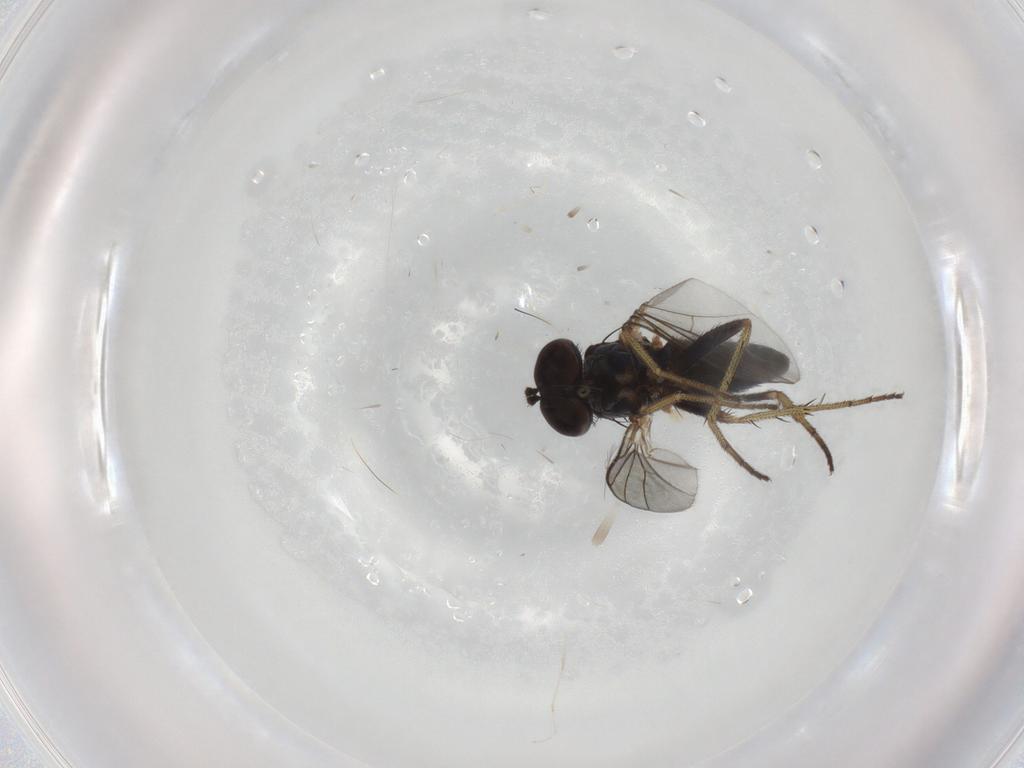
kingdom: Animalia
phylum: Arthropoda
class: Insecta
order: Diptera
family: Dolichopodidae
